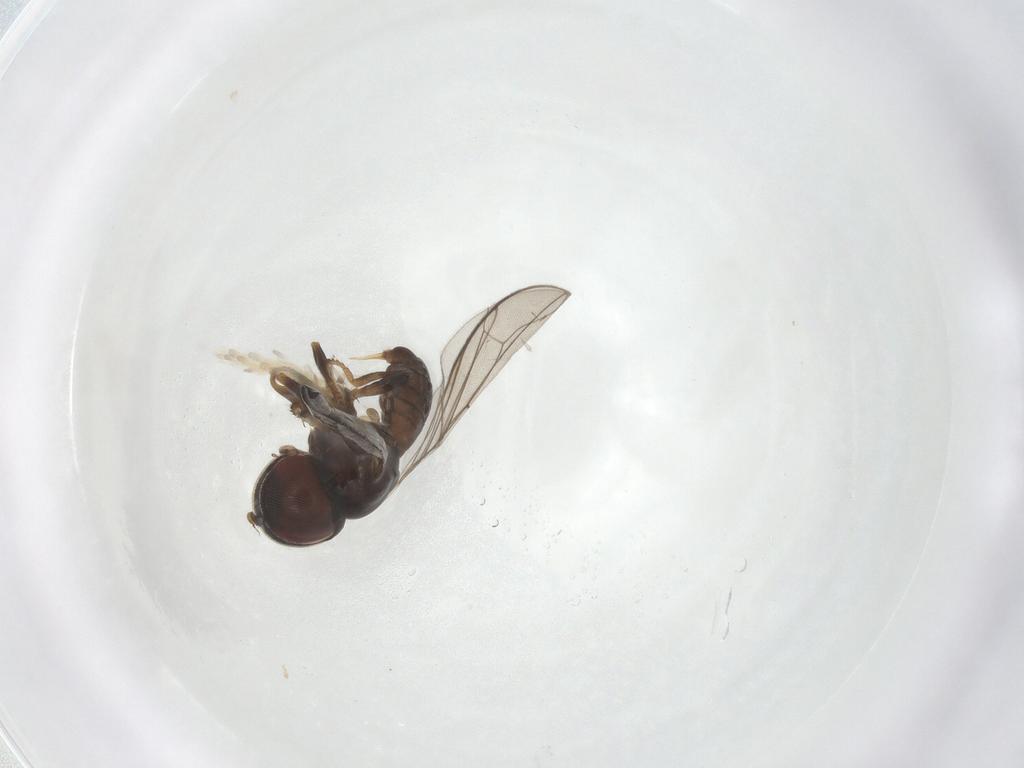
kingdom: Animalia
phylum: Arthropoda
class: Insecta
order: Diptera
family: Pipunculidae
